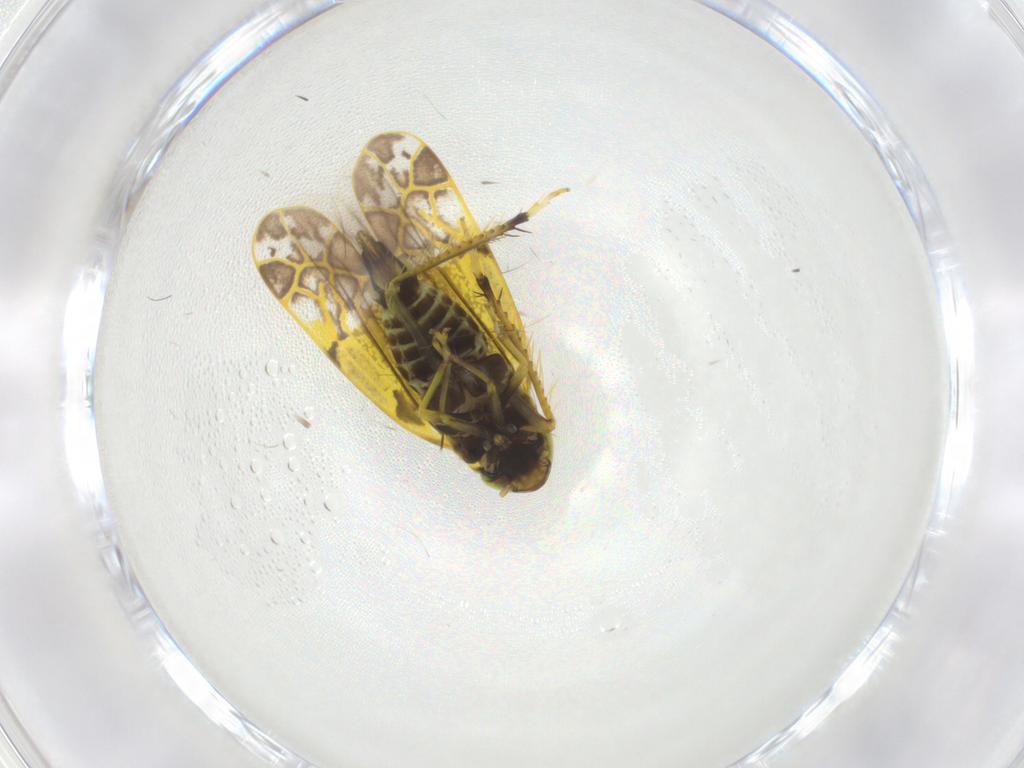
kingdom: Animalia
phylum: Arthropoda
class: Insecta
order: Hemiptera
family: Cicadellidae
